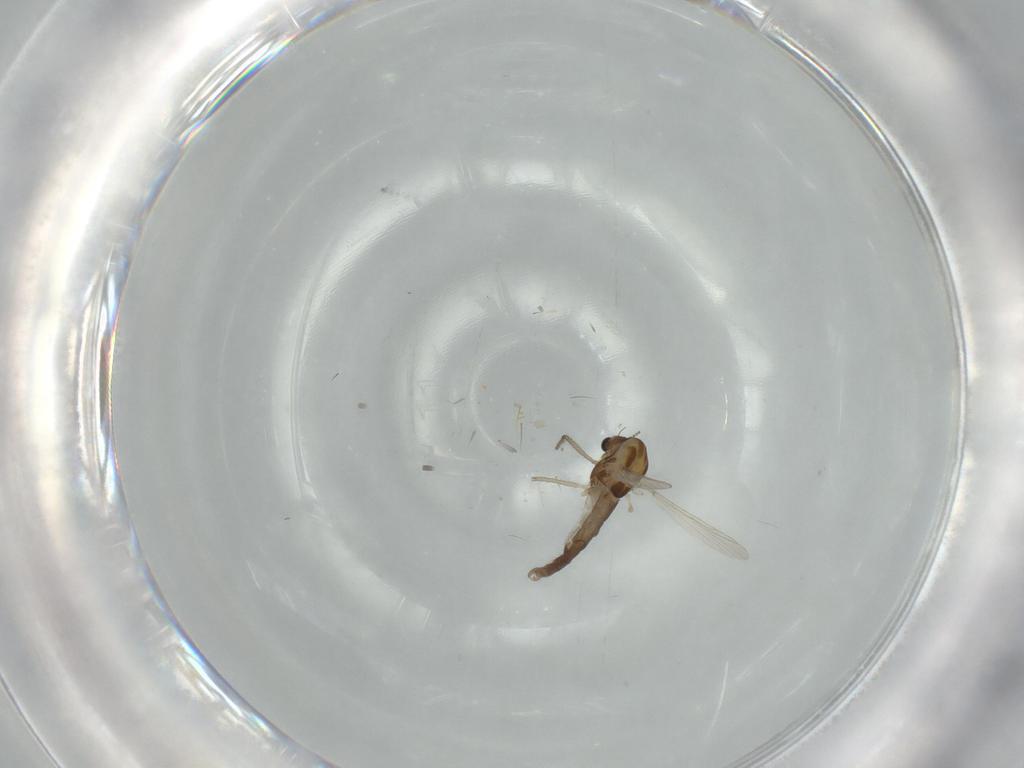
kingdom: Animalia
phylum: Arthropoda
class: Insecta
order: Diptera
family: Chironomidae
